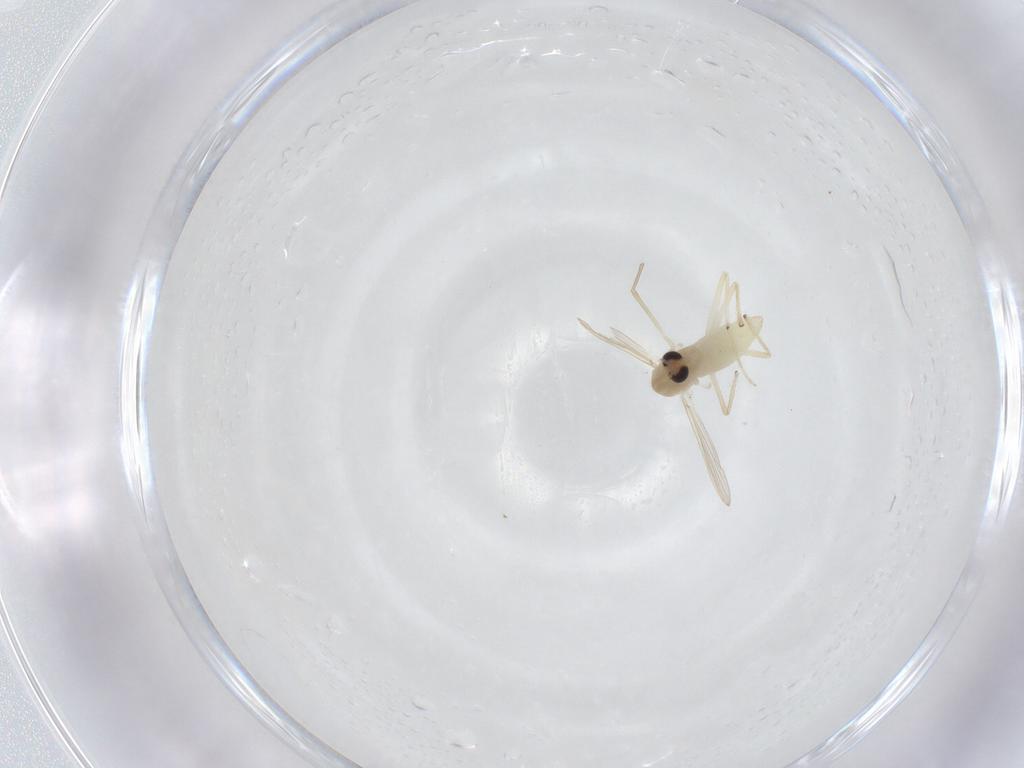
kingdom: Animalia
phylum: Arthropoda
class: Insecta
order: Diptera
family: Chironomidae
